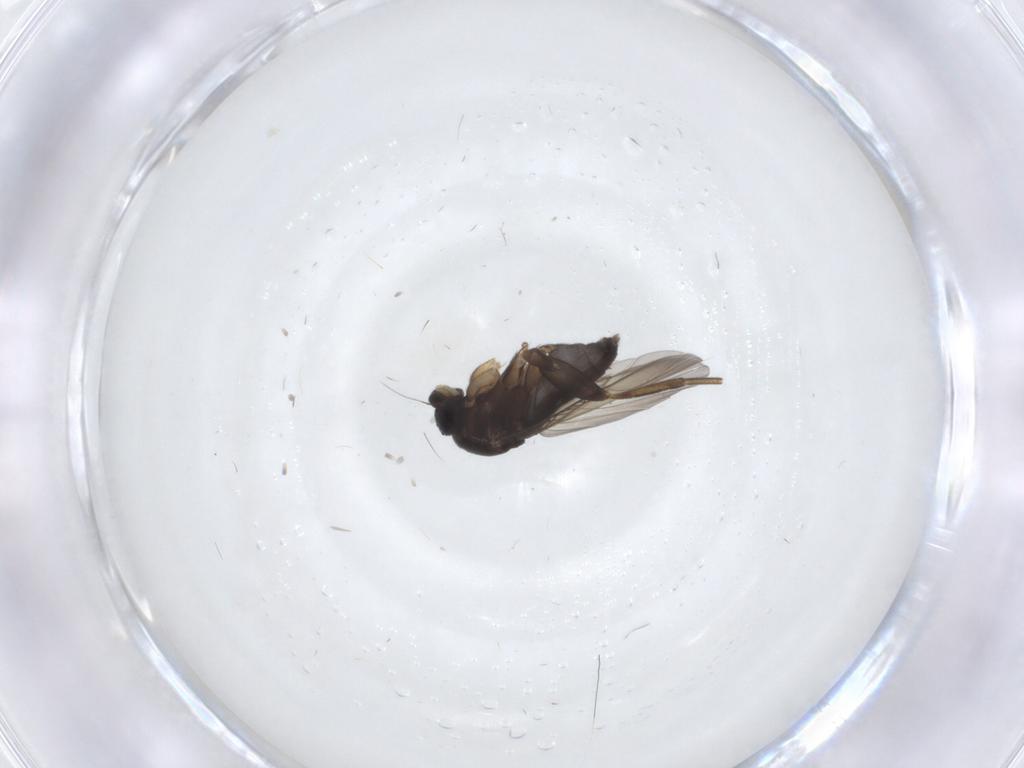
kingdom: Animalia
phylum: Arthropoda
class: Insecta
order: Diptera
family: Phoridae
